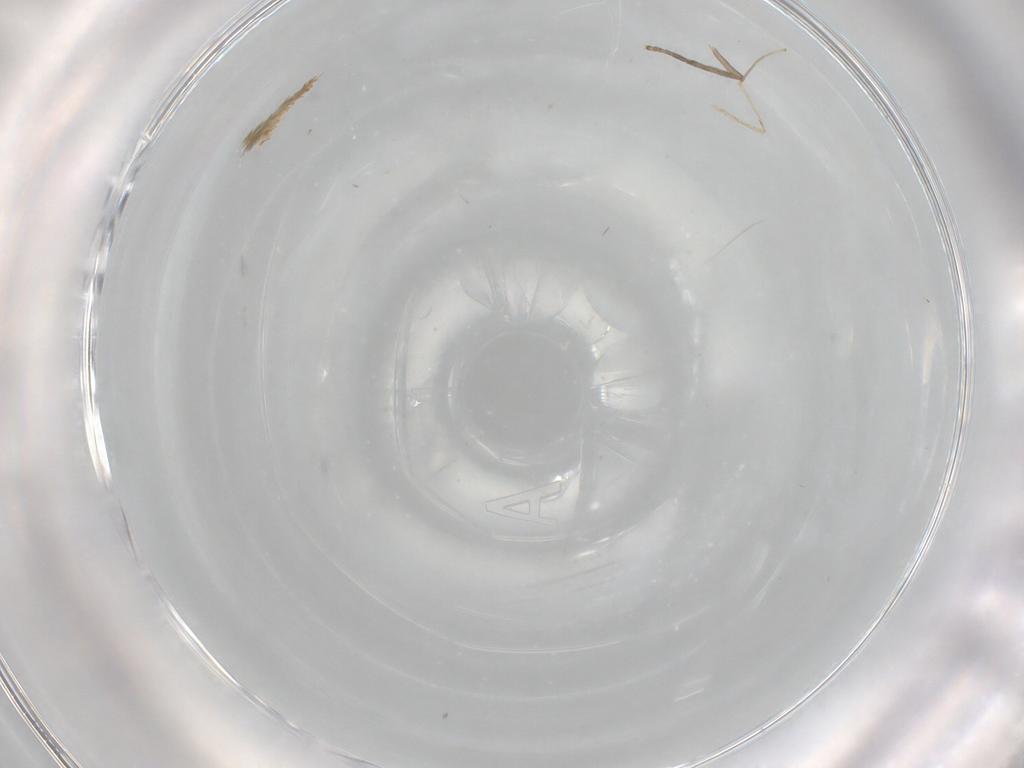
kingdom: Animalia
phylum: Arthropoda
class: Insecta
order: Diptera
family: Cecidomyiidae
